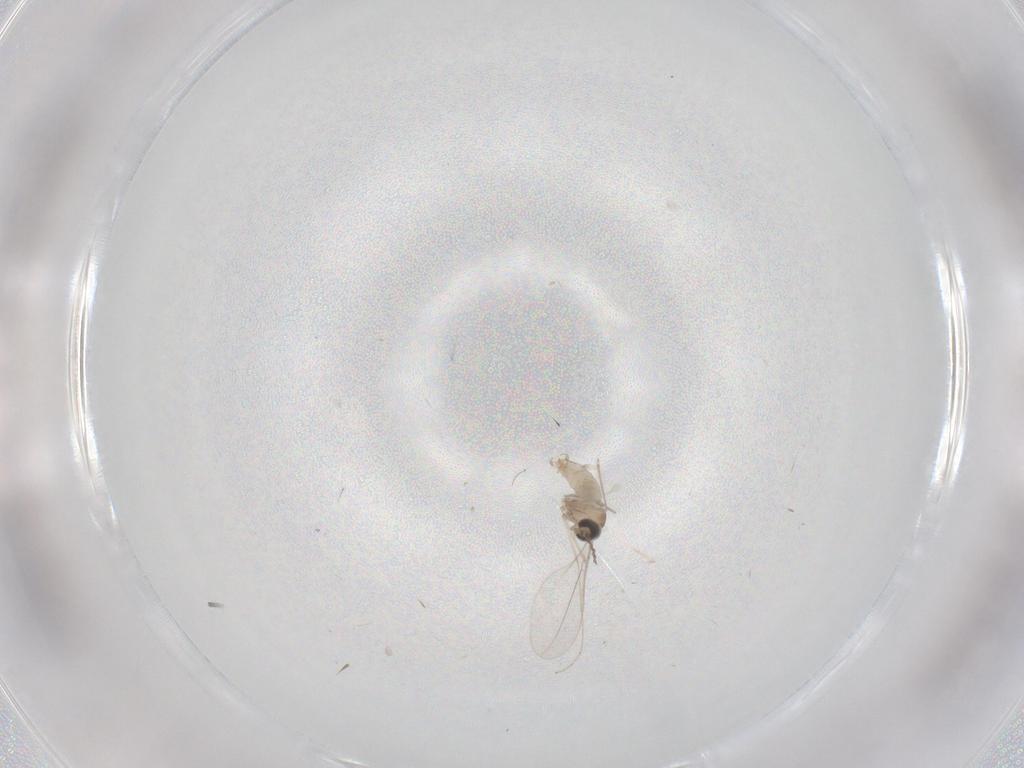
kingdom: Animalia
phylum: Arthropoda
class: Insecta
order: Diptera
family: Cecidomyiidae
